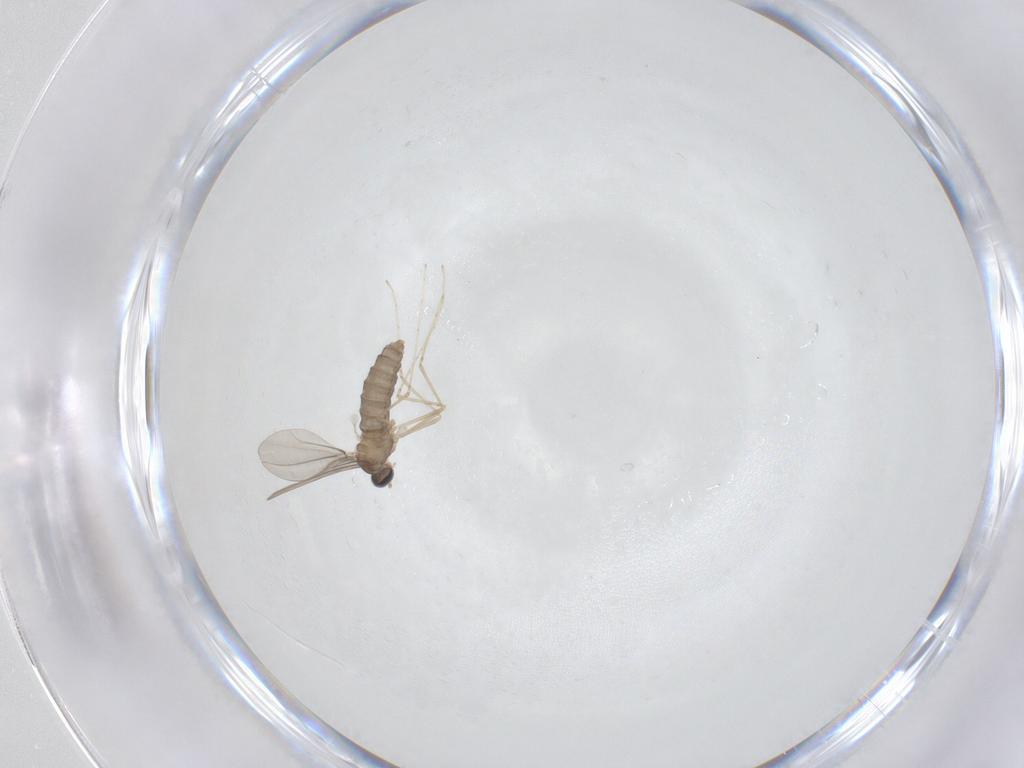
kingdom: Animalia
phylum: Arthropoda
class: Insecta
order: Diptera
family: Cecidomyiidae
